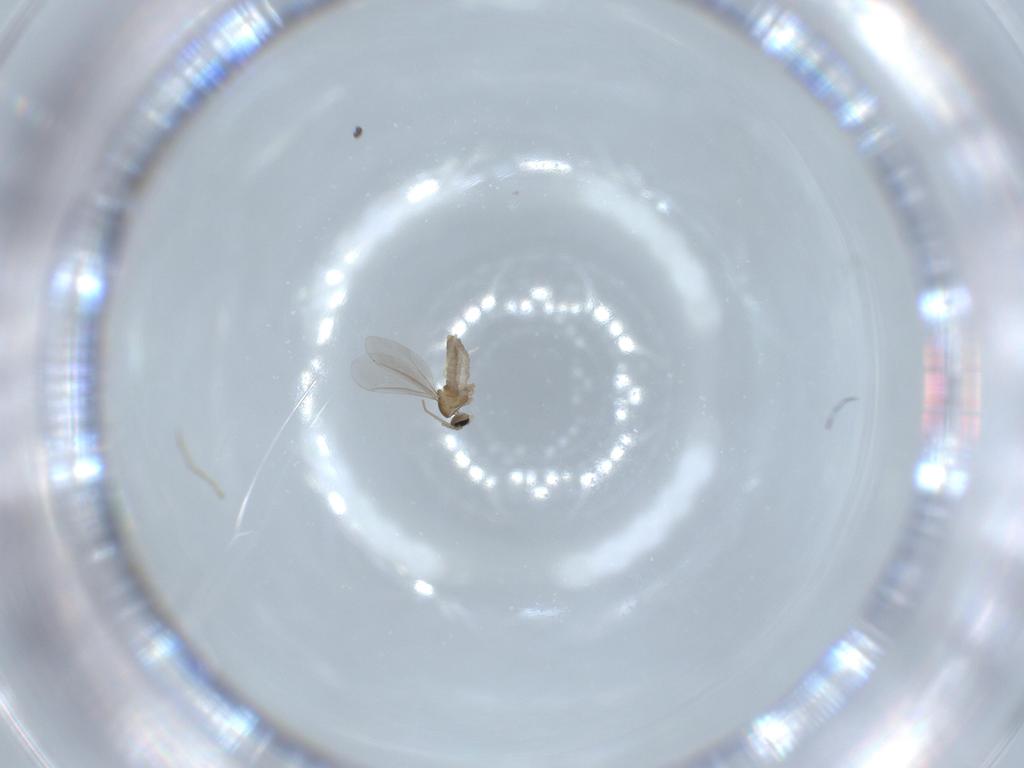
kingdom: Animalia
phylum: Arthropoda
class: Insecta
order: Diptera
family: Cecidomyiidae
